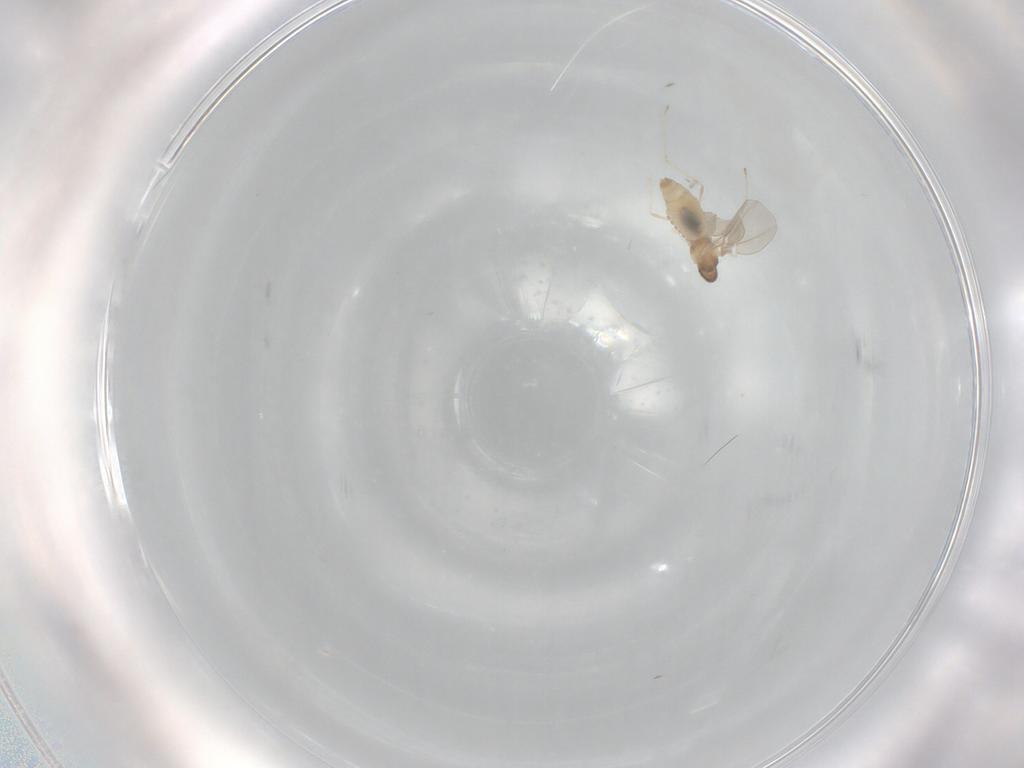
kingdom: Animalia
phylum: Arthropoda
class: Insecta
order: Diptera
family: Cecidomyiidae
